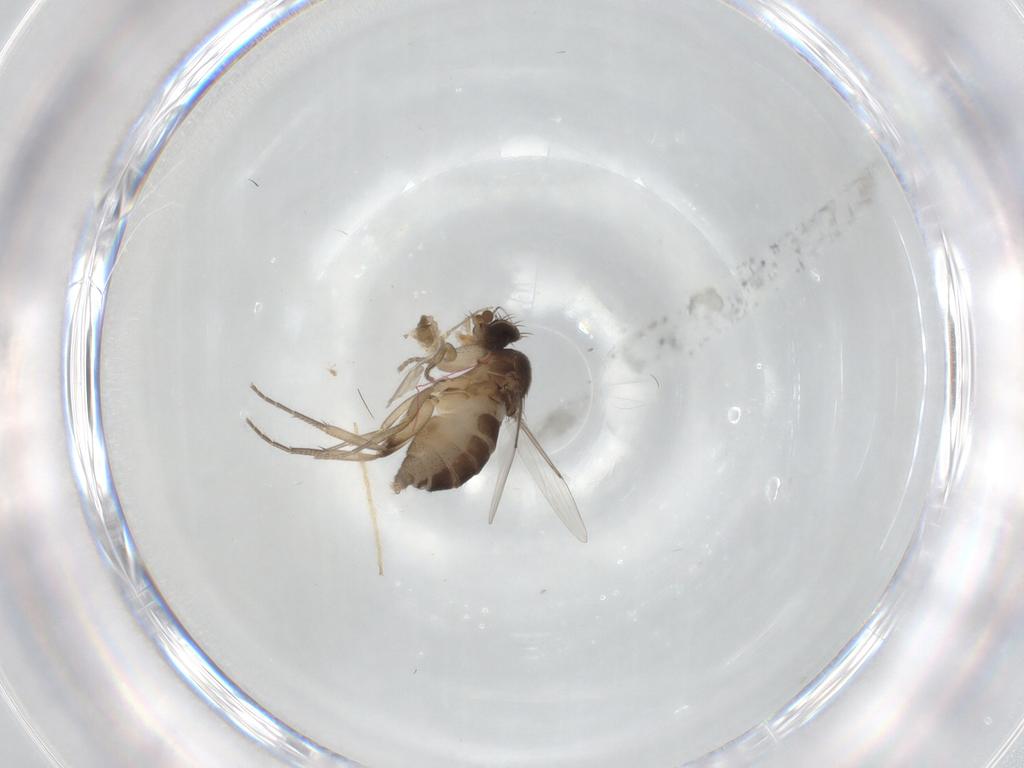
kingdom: Animalia
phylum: Arthropoda
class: Insecta
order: Diptera
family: Phoridae
